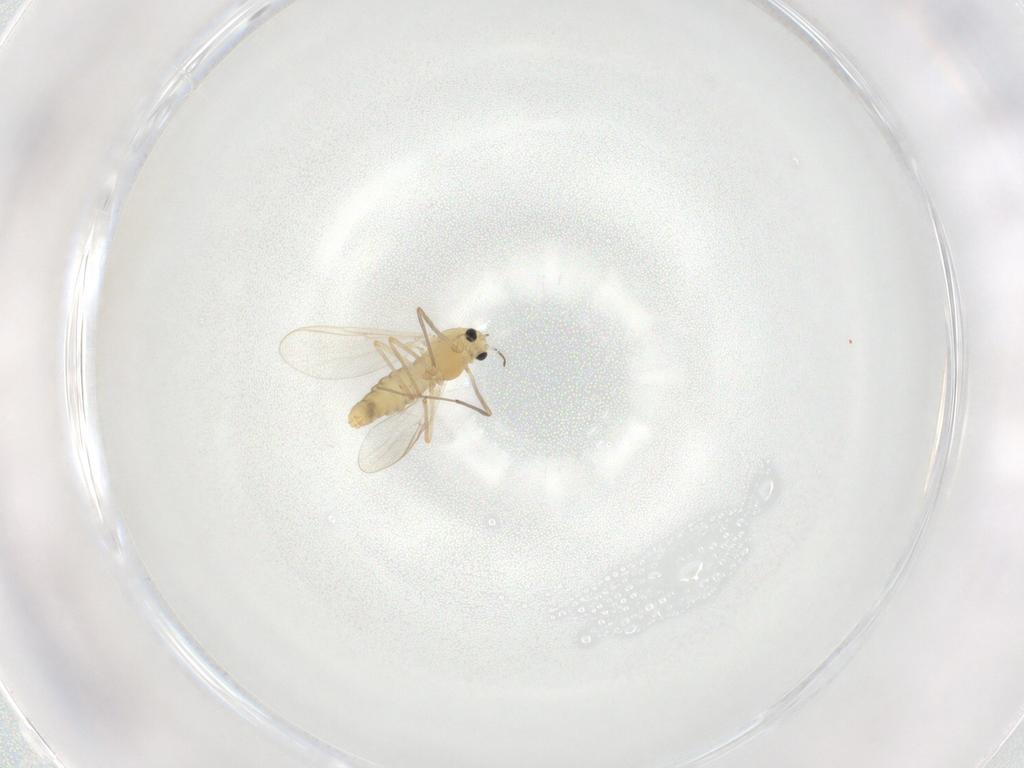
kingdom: Animalia
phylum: Arthropoda
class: Insecta
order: Diptera
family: Chironomidae
